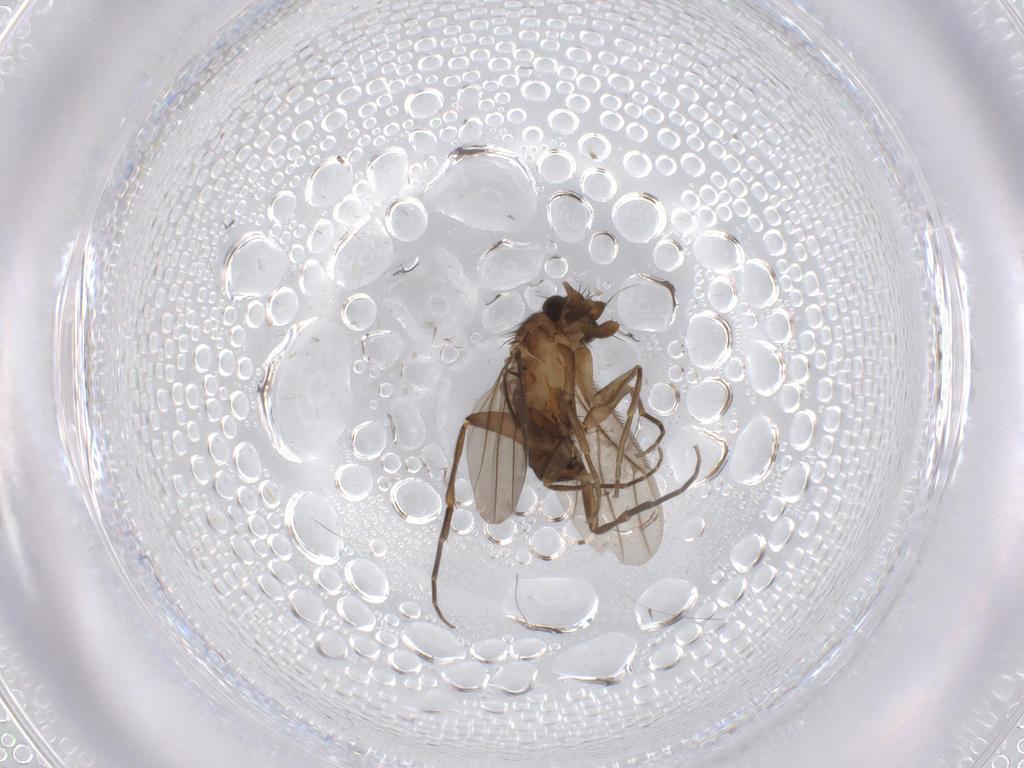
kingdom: Animalia
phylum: Arthropoda
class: Insecta
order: Diptera
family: Phoridae
